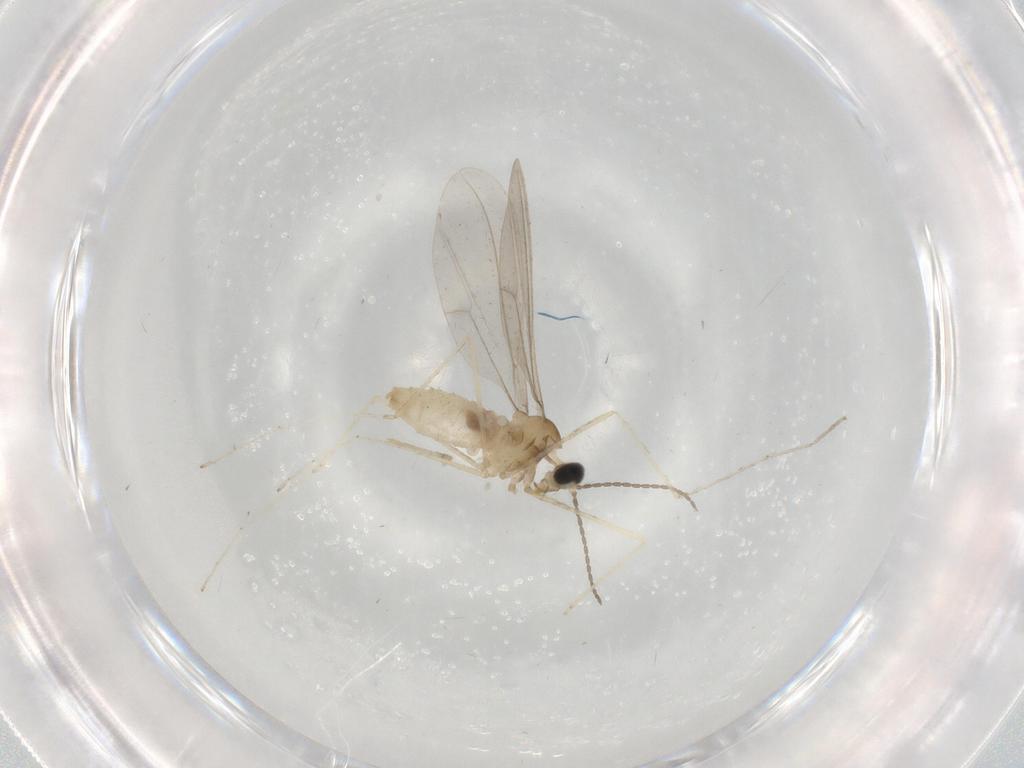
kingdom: Animalia
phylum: Arthropoda
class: Insecta
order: Diptera
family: Cecidomyiidae
